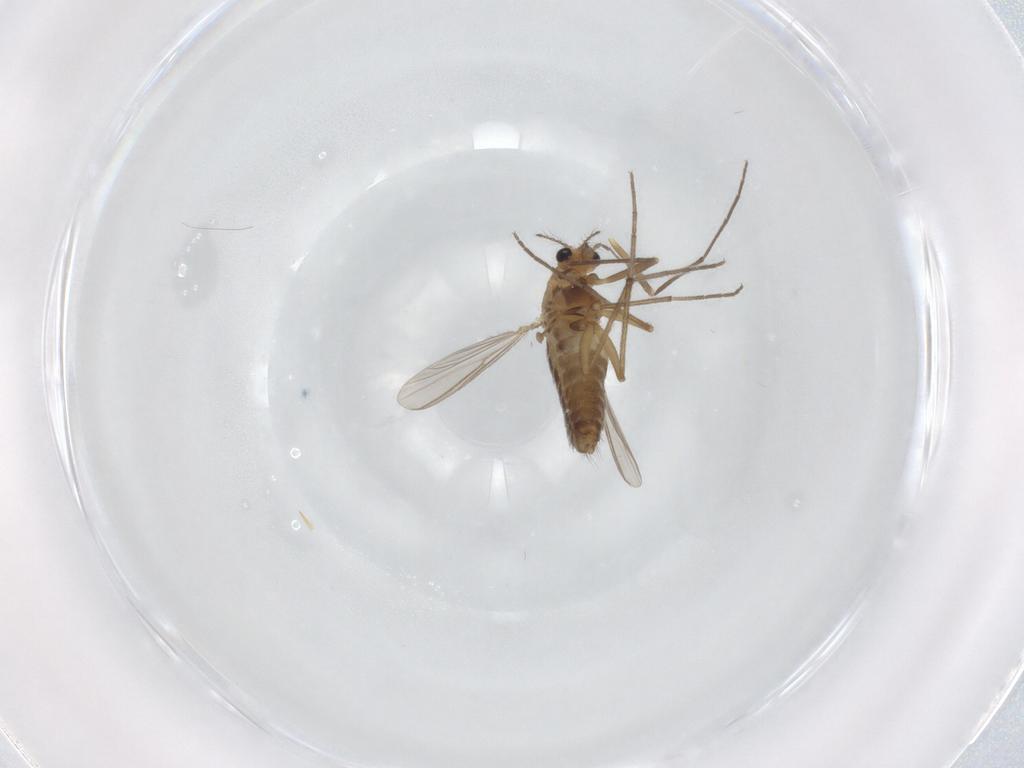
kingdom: Animalia
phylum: Arthropoda
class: Insecta
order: Diptera
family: Chironomidae
